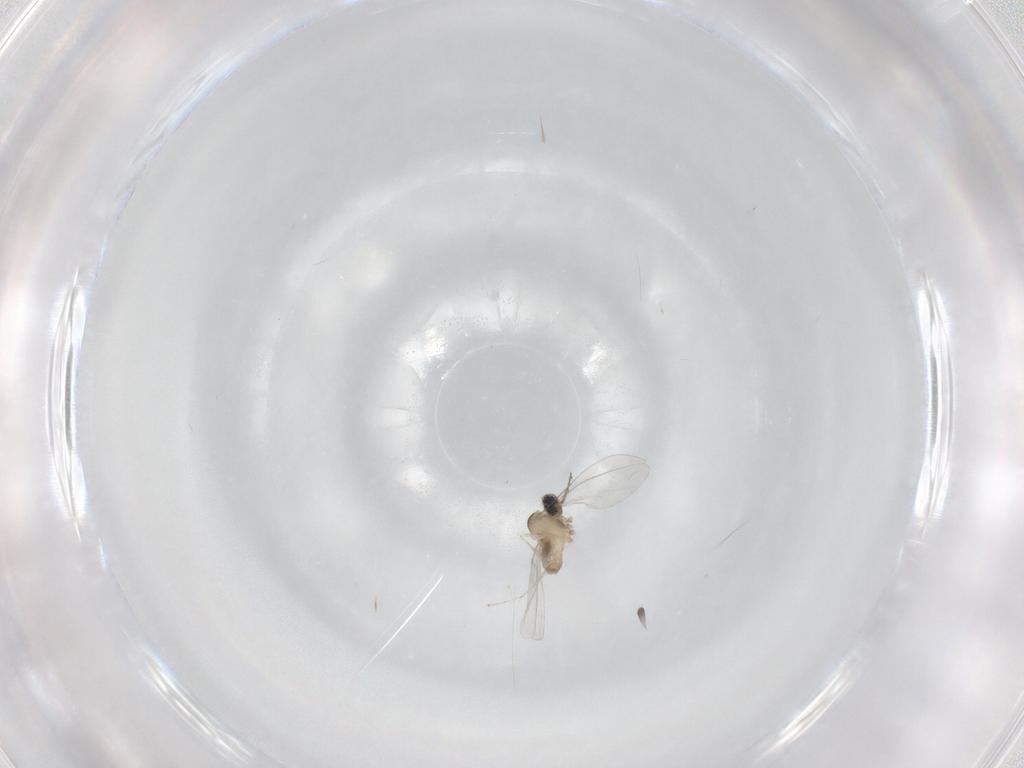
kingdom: Animalia
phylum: Arthropoda
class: Insecta
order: Diptera
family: Cecidomyiidae
